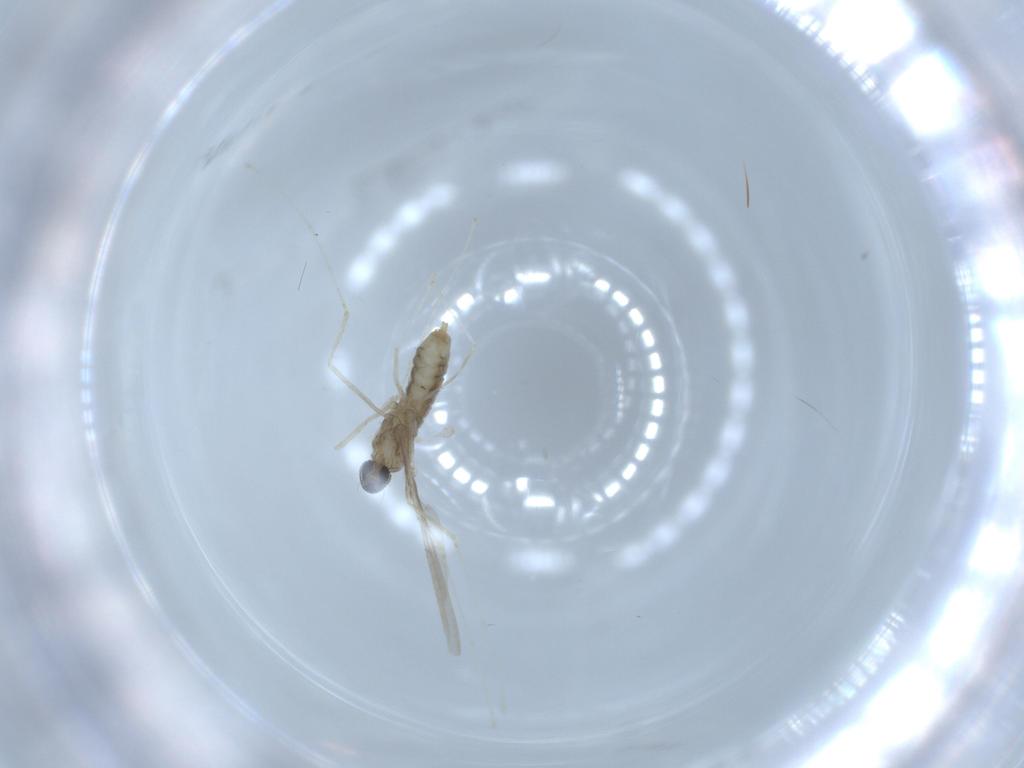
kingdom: Animalia
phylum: Arthropoda
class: Insecta
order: Diptera
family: Cecidomyiidae
